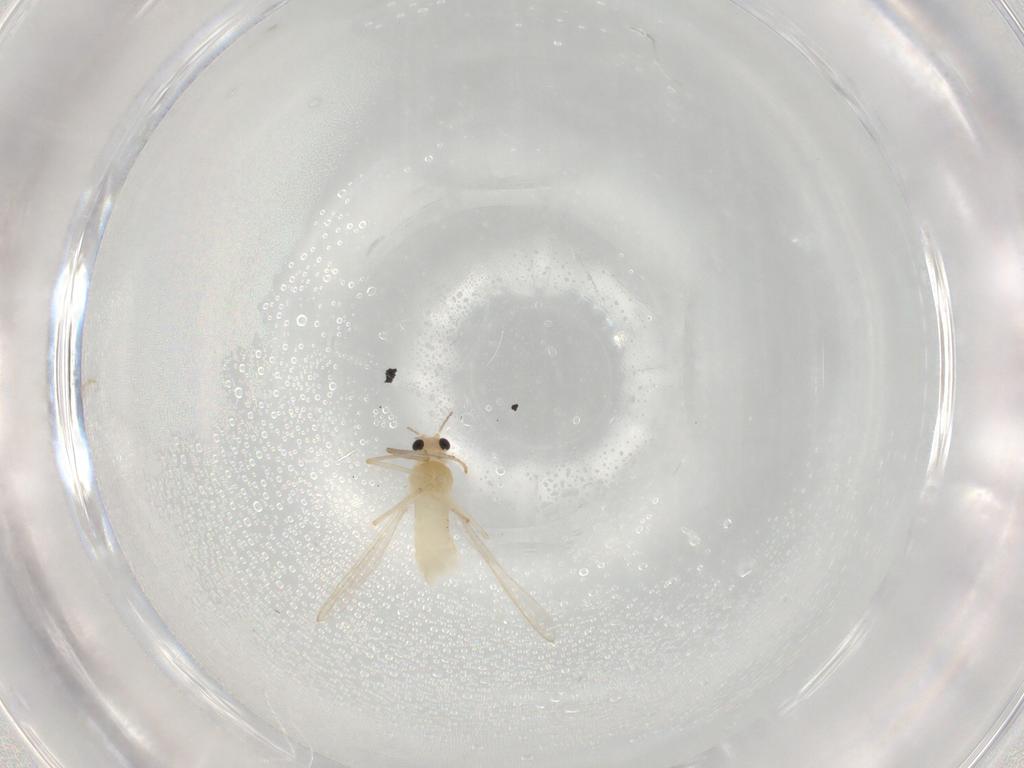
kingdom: Animalia
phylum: Arthropoda
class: Insecta
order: Diptera
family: Chironomidae
